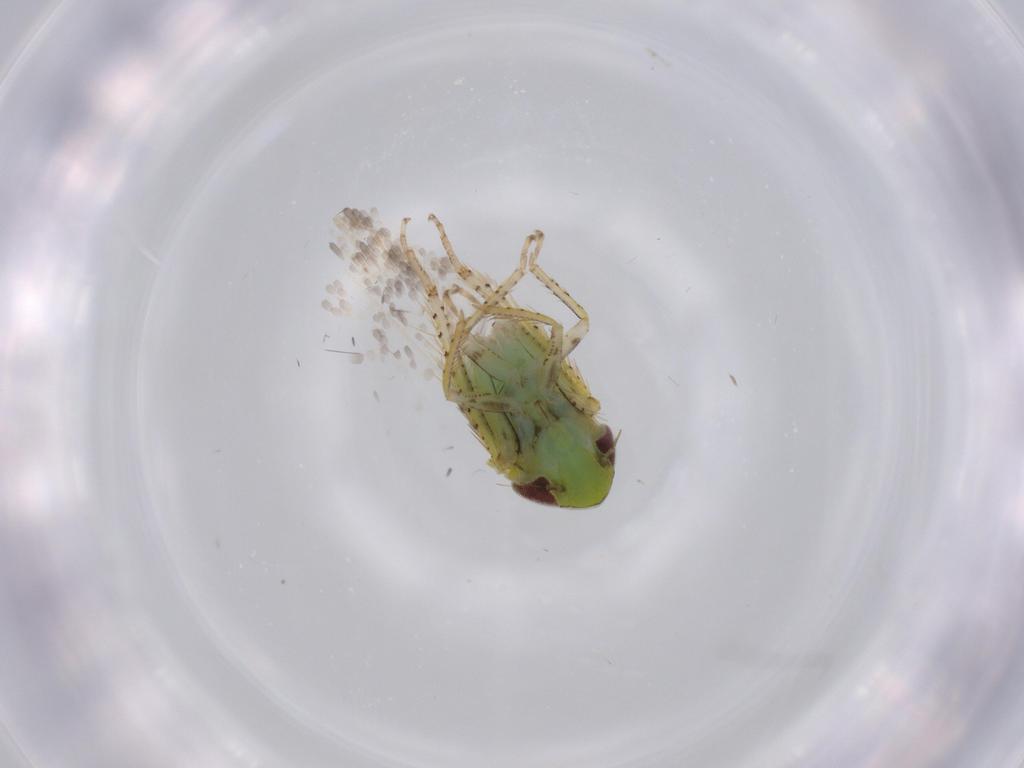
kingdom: Animalia
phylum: Arthropoda
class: Insecta
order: Hemiptera
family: Cicadellidae
